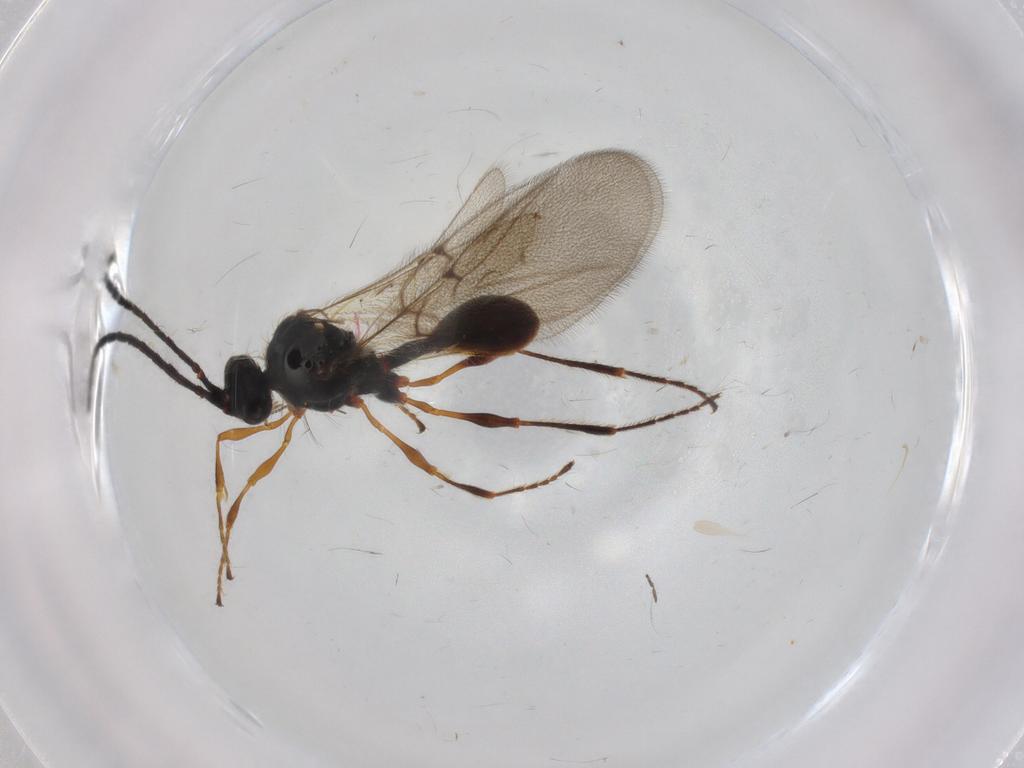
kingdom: Animalia
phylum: Arthropoda
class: Insecta
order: Hymenoptera
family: Diapriidae
